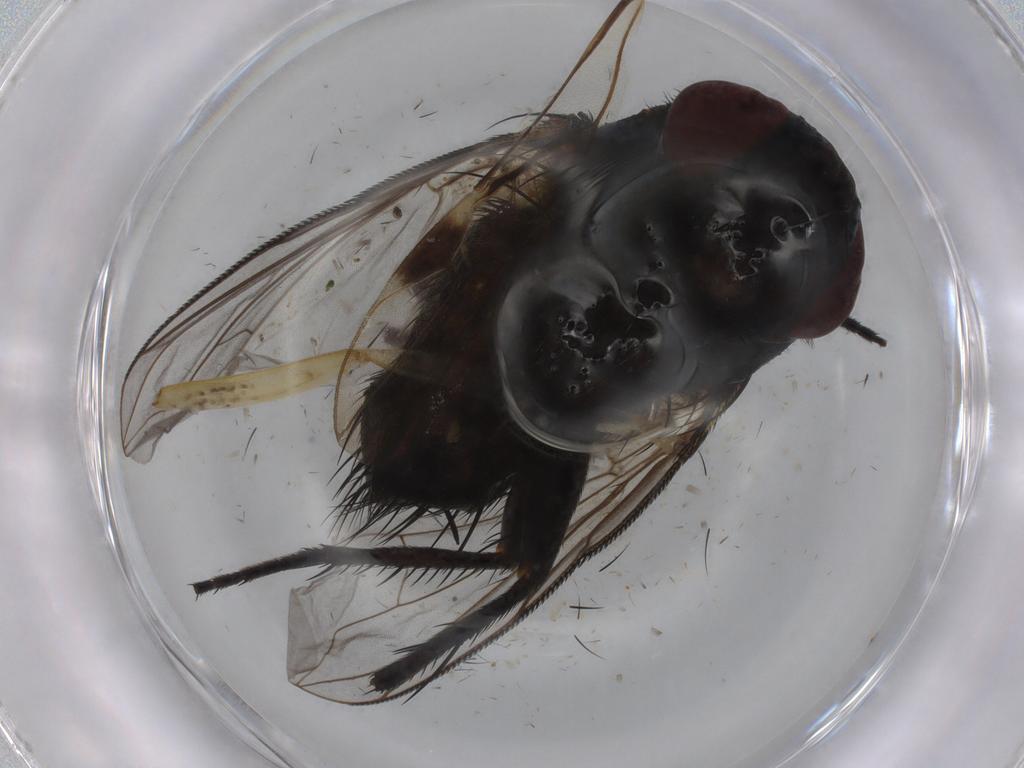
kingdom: Animalia
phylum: Arthropoda
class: Insecta
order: Diptera
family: Tachinidae
